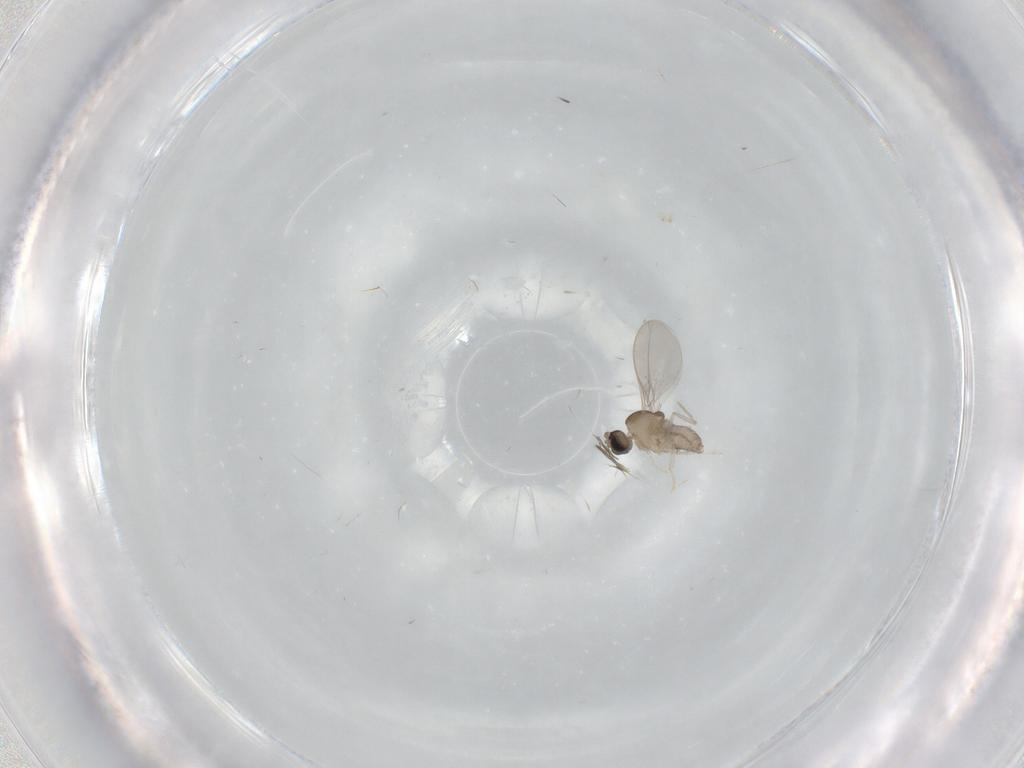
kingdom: Animalia
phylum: Arthropoda
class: Insecta
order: Diptera
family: Cecidomyiidae
